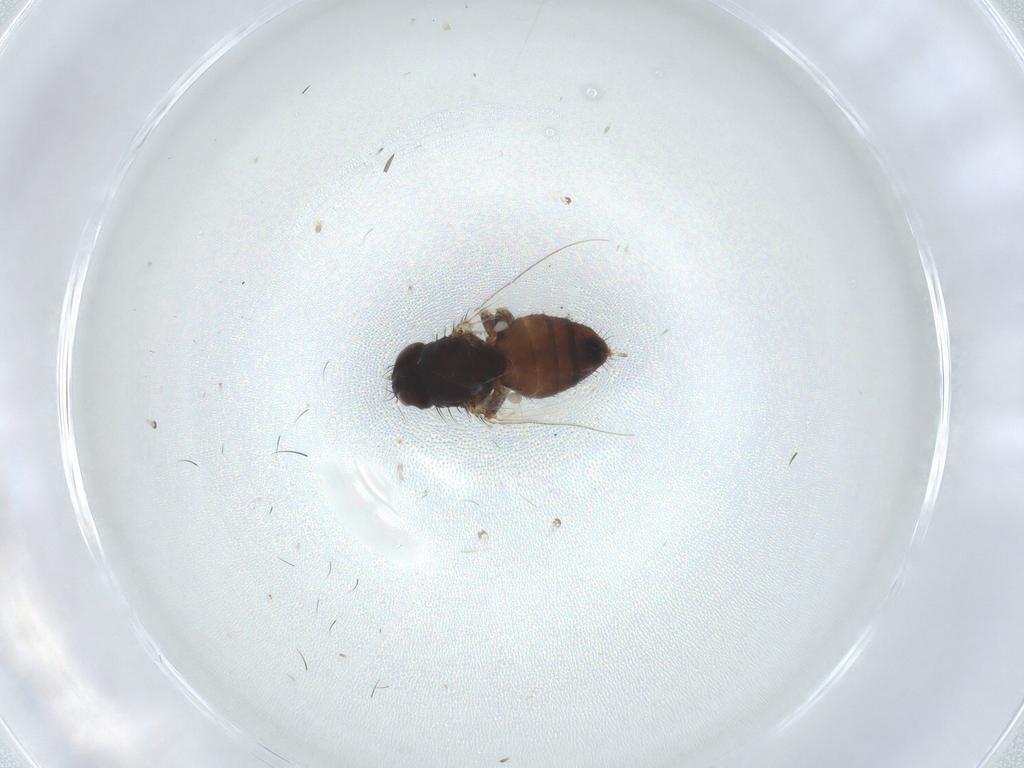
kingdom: Animalia
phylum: Arthropoda
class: Insecta
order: Diptera
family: Chloropidae
